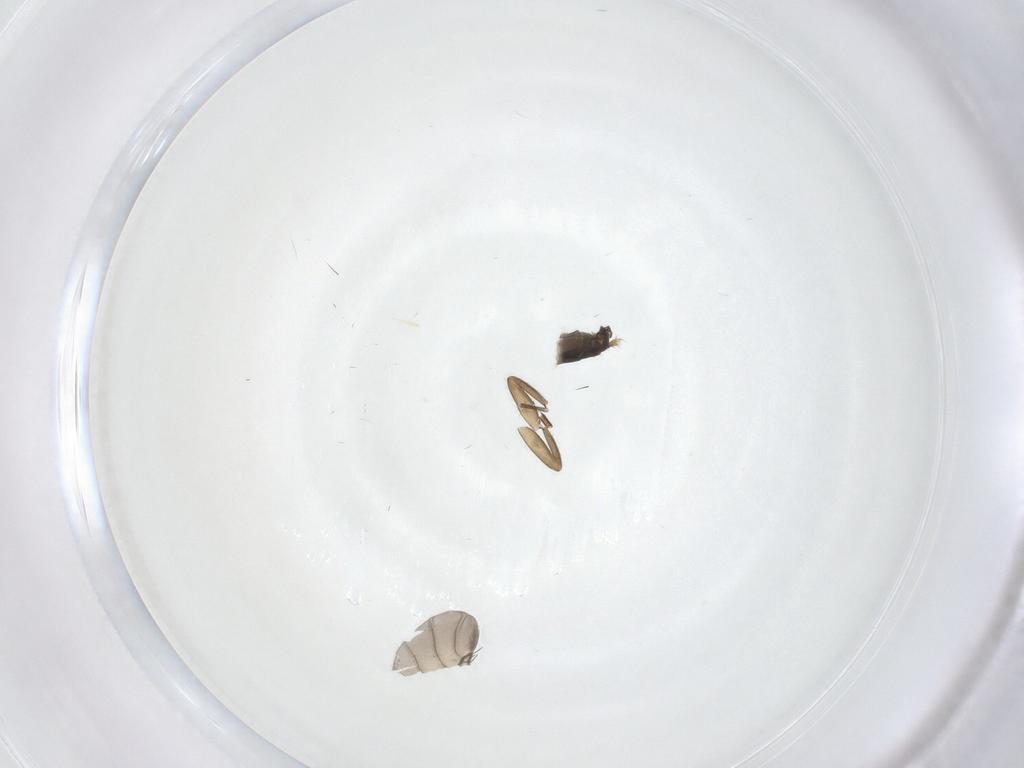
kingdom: Animalia
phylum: Arthropoda
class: Insecta
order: Diptera
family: Phoridae
